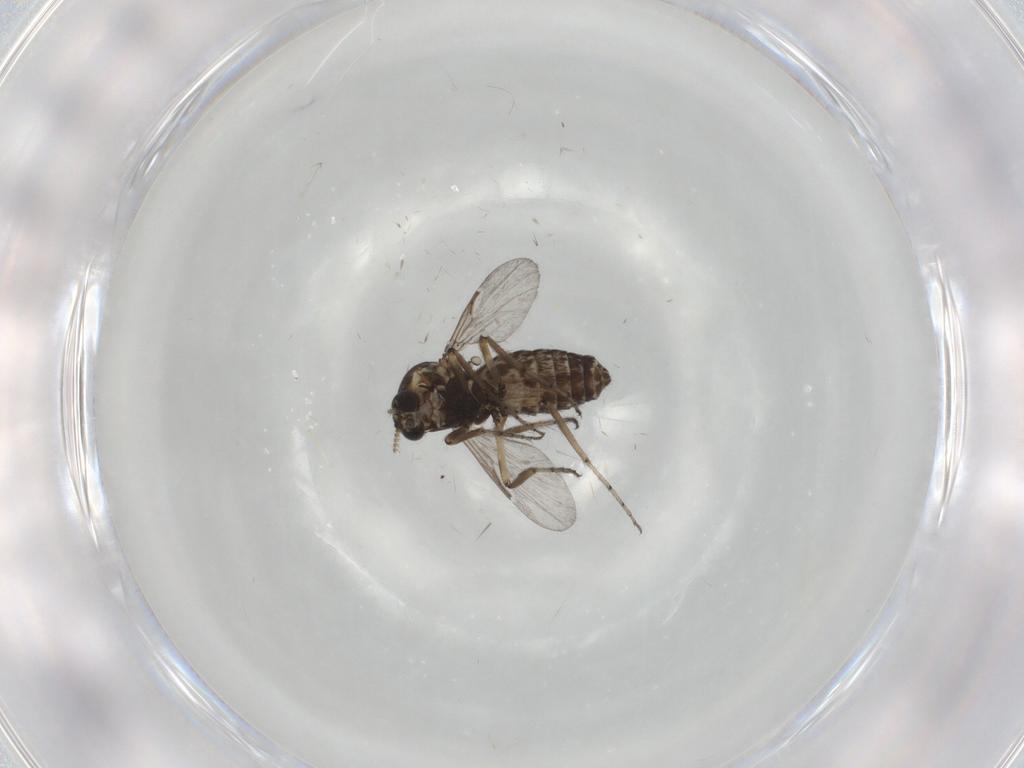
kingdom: Animalia
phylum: Arthropoda
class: Insecta
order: Diptera
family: Ceratopogonidae
